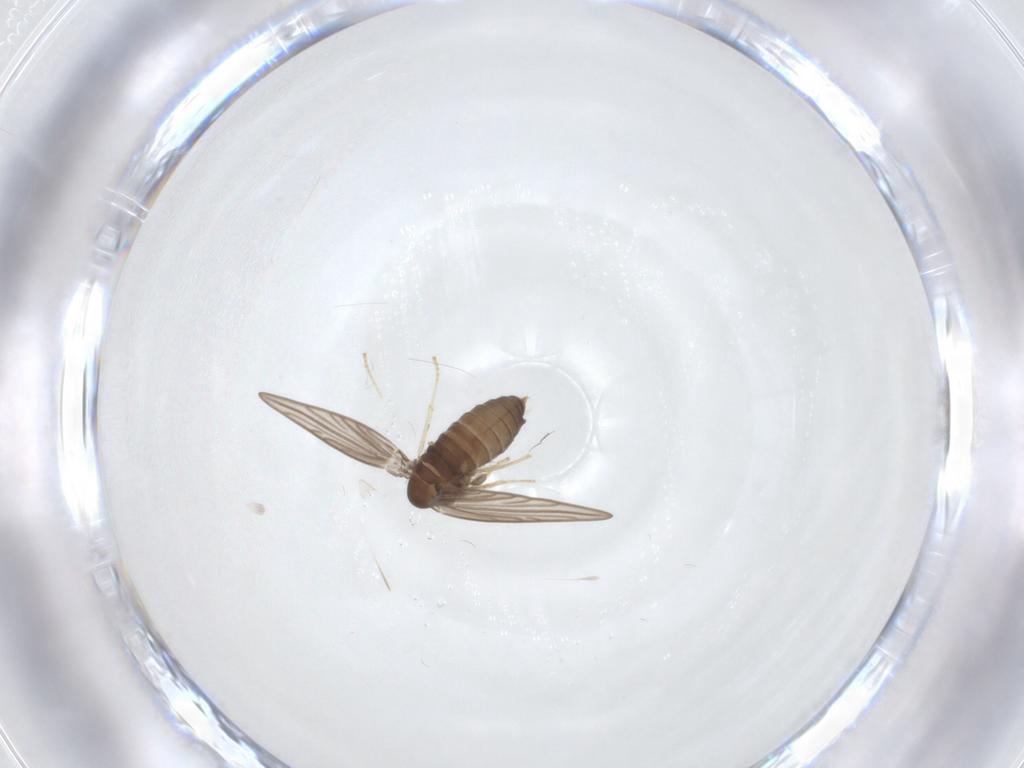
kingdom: Animalia
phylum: Arthropoda
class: Insecta
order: Diptera
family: Psychodidae
